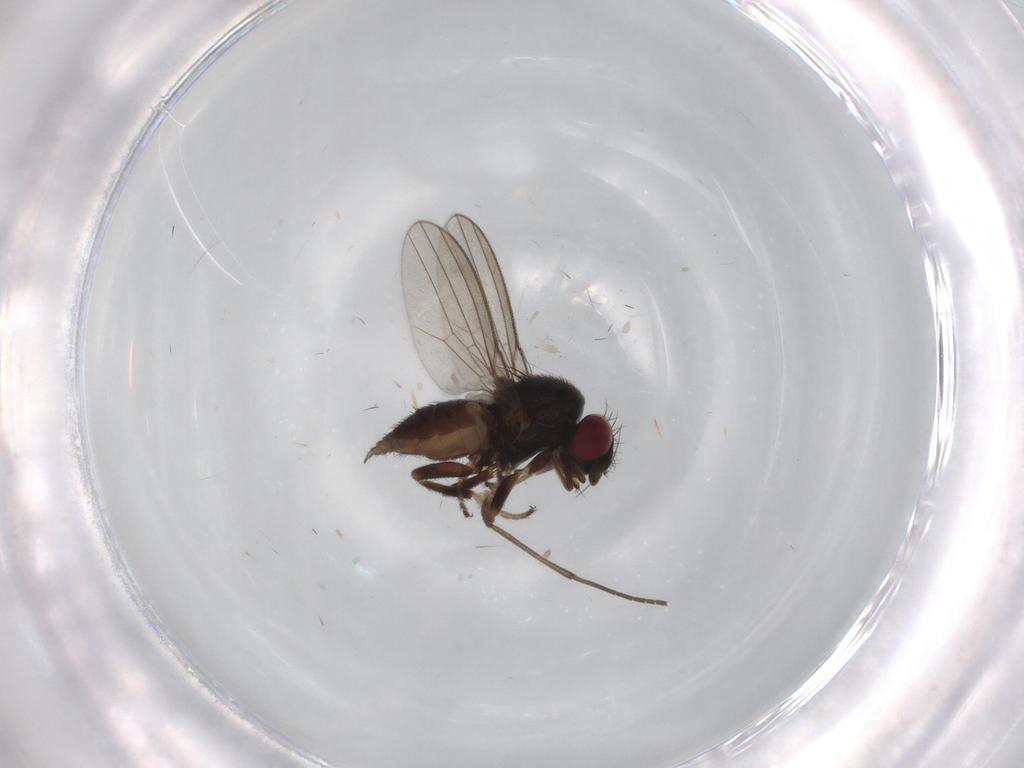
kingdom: Animalia
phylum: Arthropoda
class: Insecta
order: Diptera
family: Milichiidae
